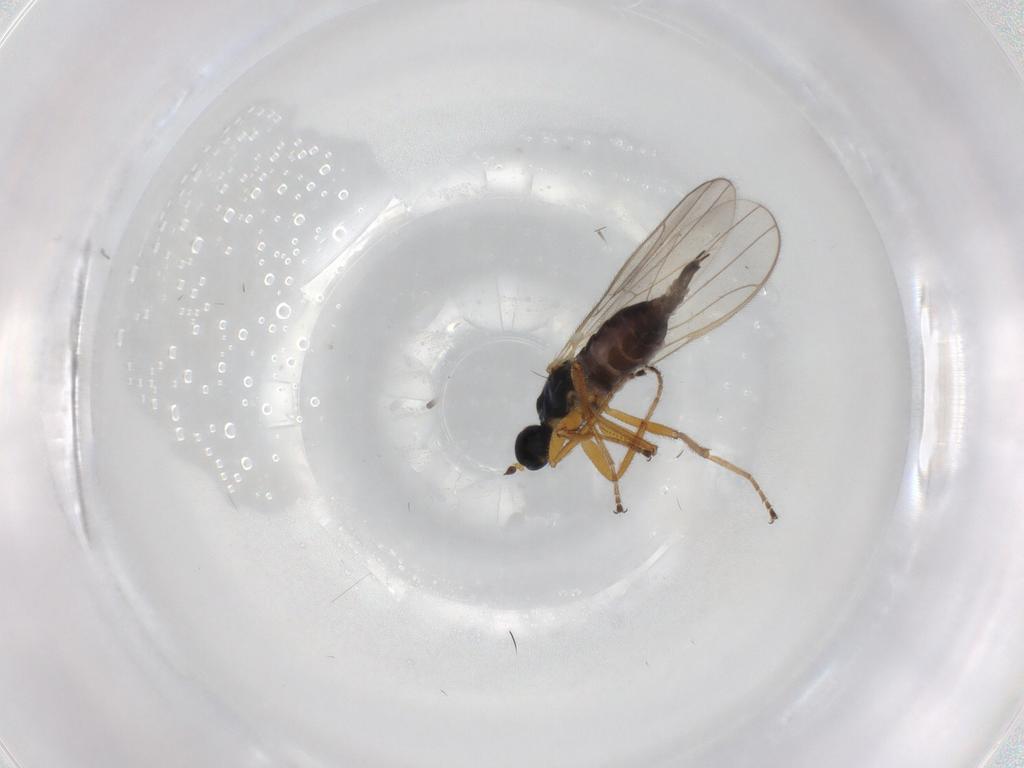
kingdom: Animalia
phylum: Arthropoda
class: Insecta
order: Diptera
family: Hybotidae
